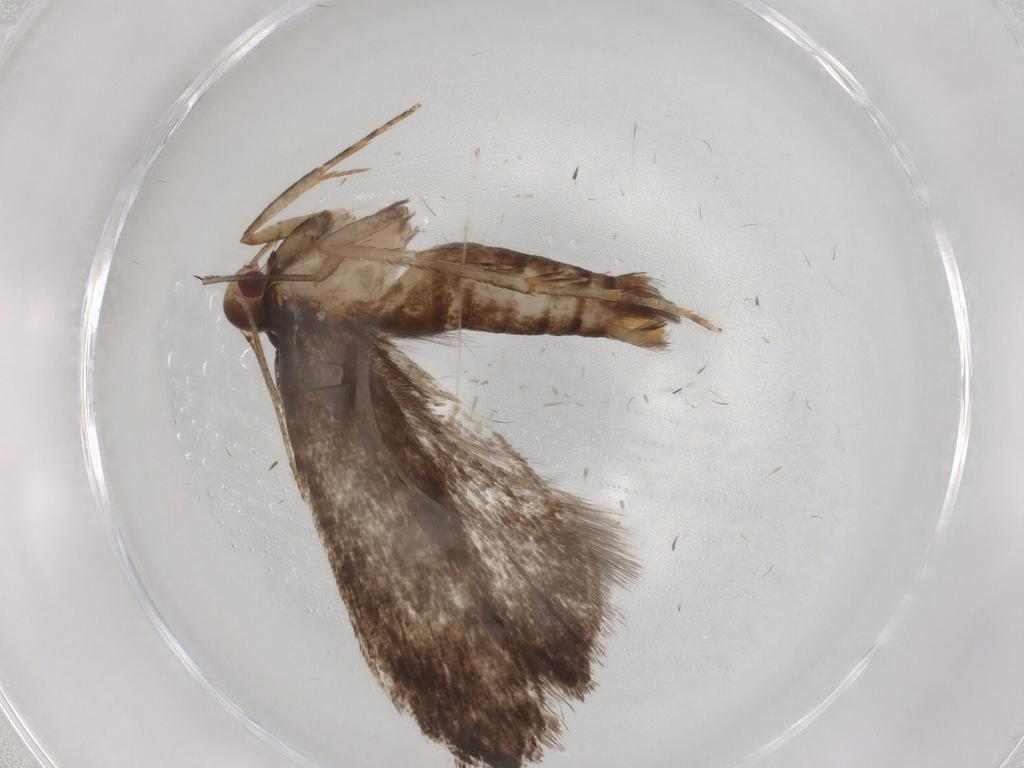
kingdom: Animalia
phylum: Arthropoda
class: Insecta
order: Lepidoptera
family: Gelechiidae
